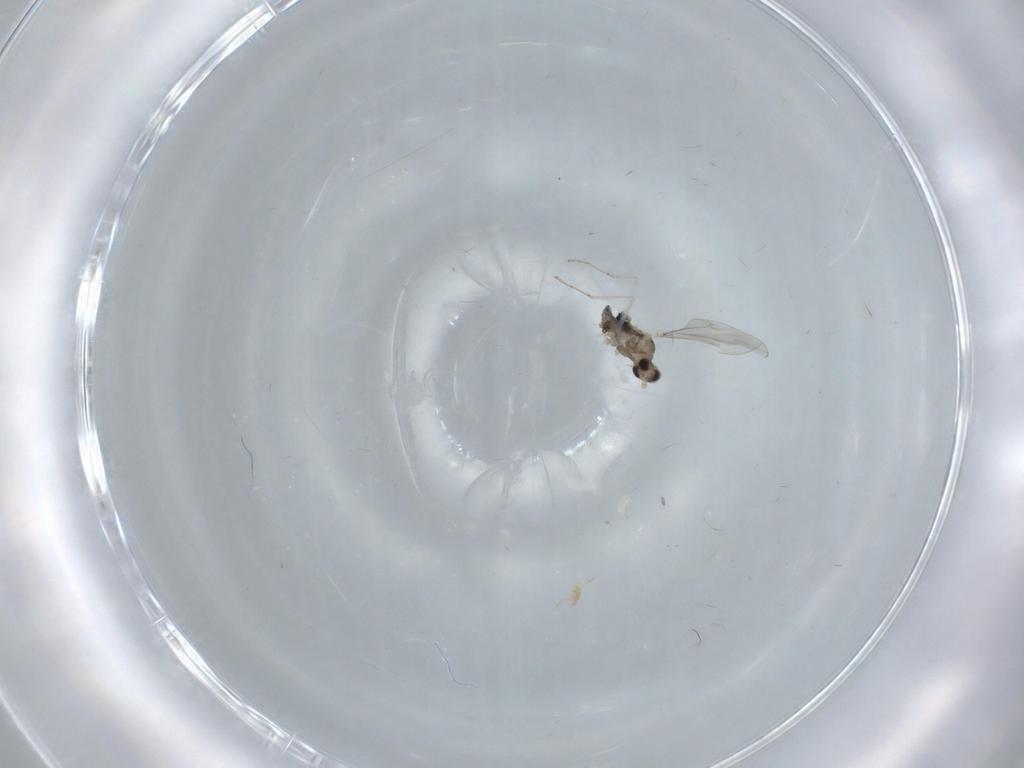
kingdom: Animalia
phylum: Arthropoda
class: Insecta
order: Diptera
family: Cecidomyiidae
